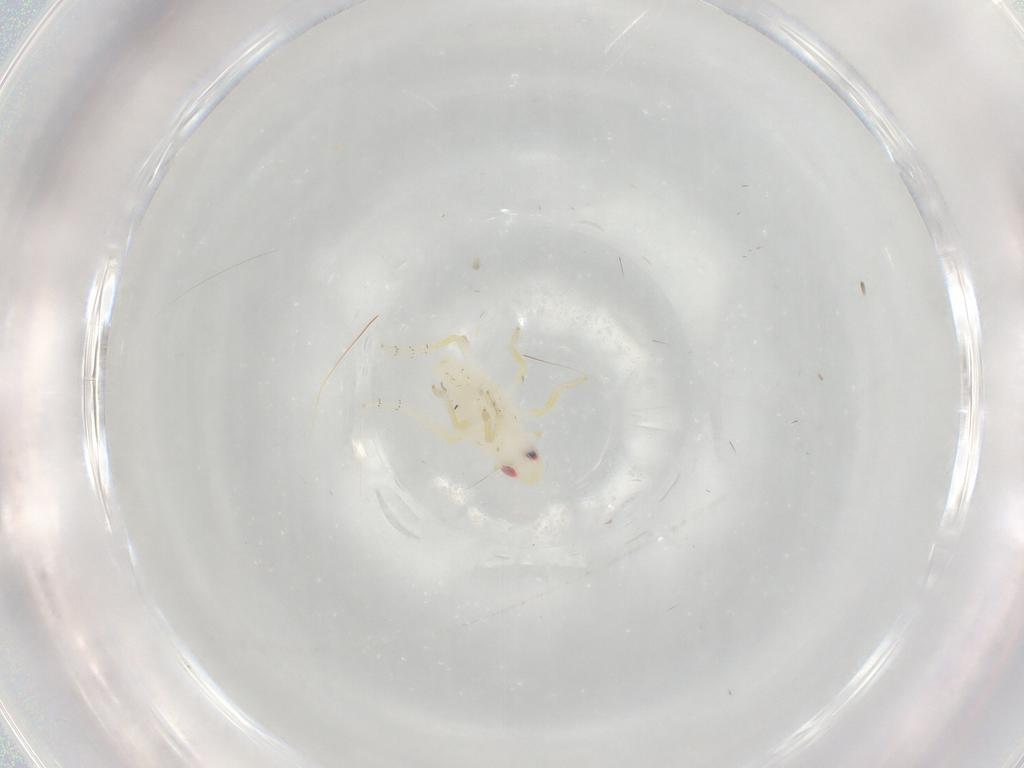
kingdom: Animalia
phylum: Arthropoda
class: Insecta
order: Hemiptera
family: Tropiduchidae
